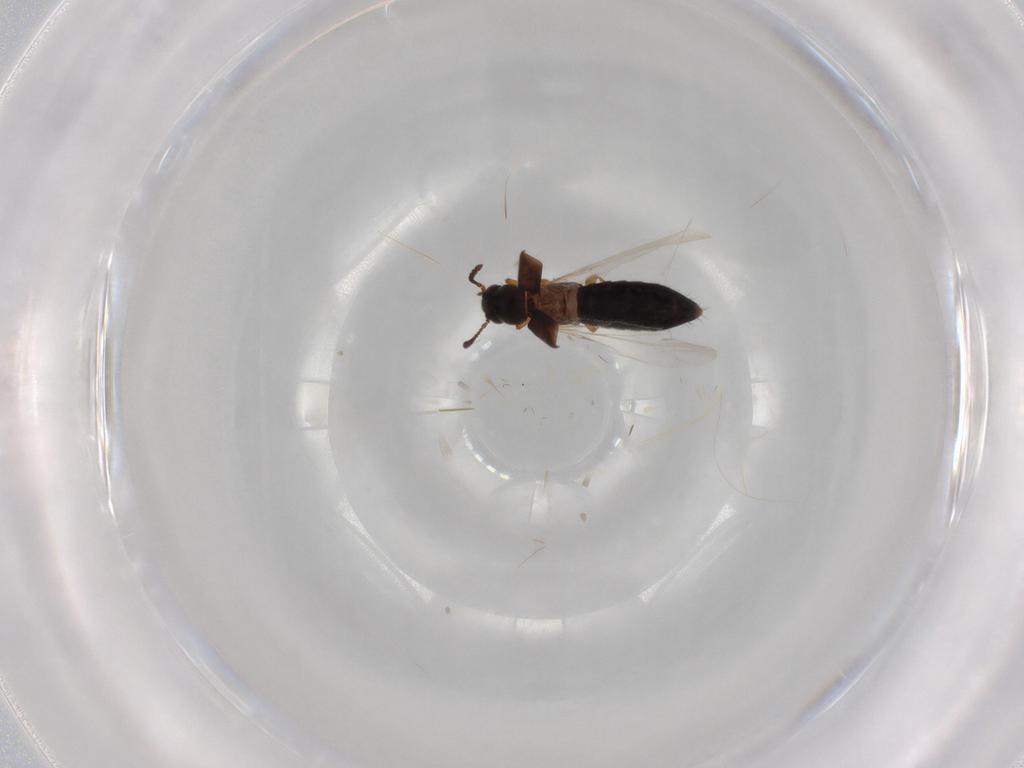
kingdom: Animalia
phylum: Arthropoda
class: Insecta
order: Coleoptera
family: Staphylinidae
